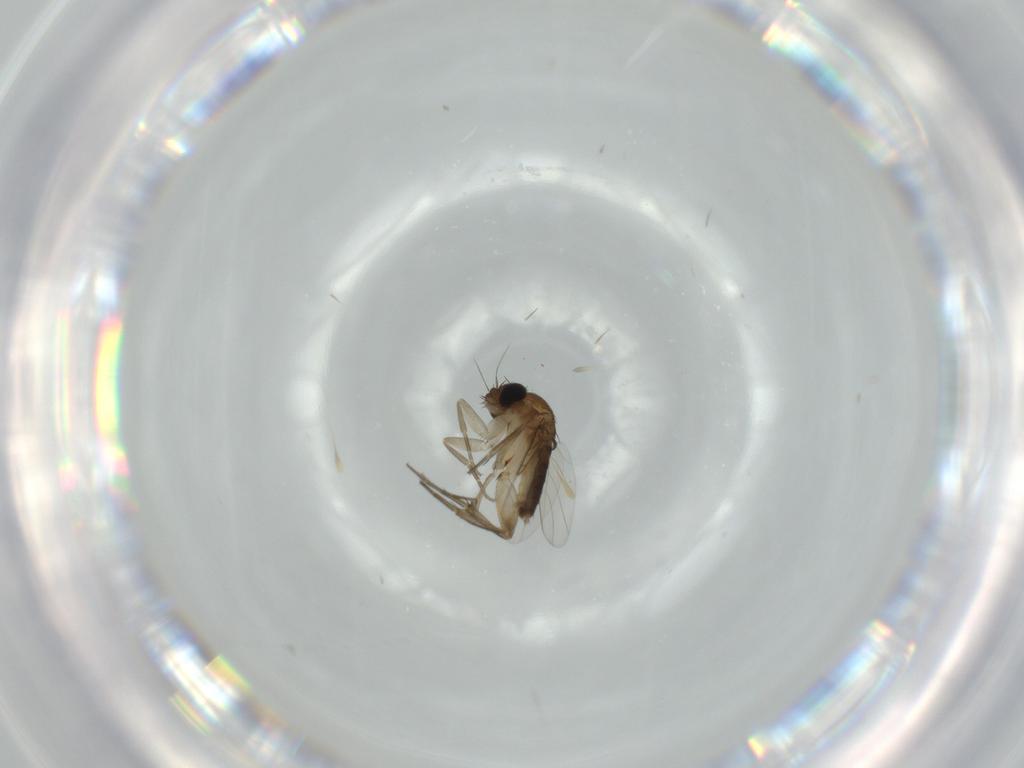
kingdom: Animalia
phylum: Arthropoda
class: Insecta
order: Diptera
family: Phoridae
